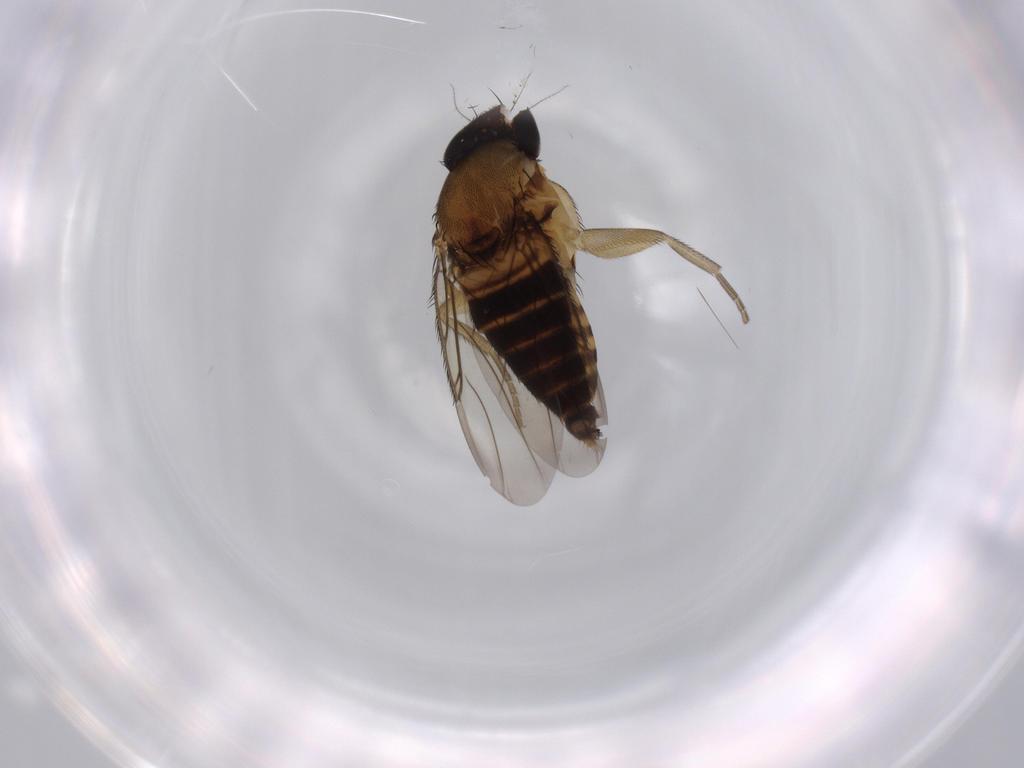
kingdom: Animalia
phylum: Arthropoda
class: Insecta
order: Diptera
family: Phoridae
